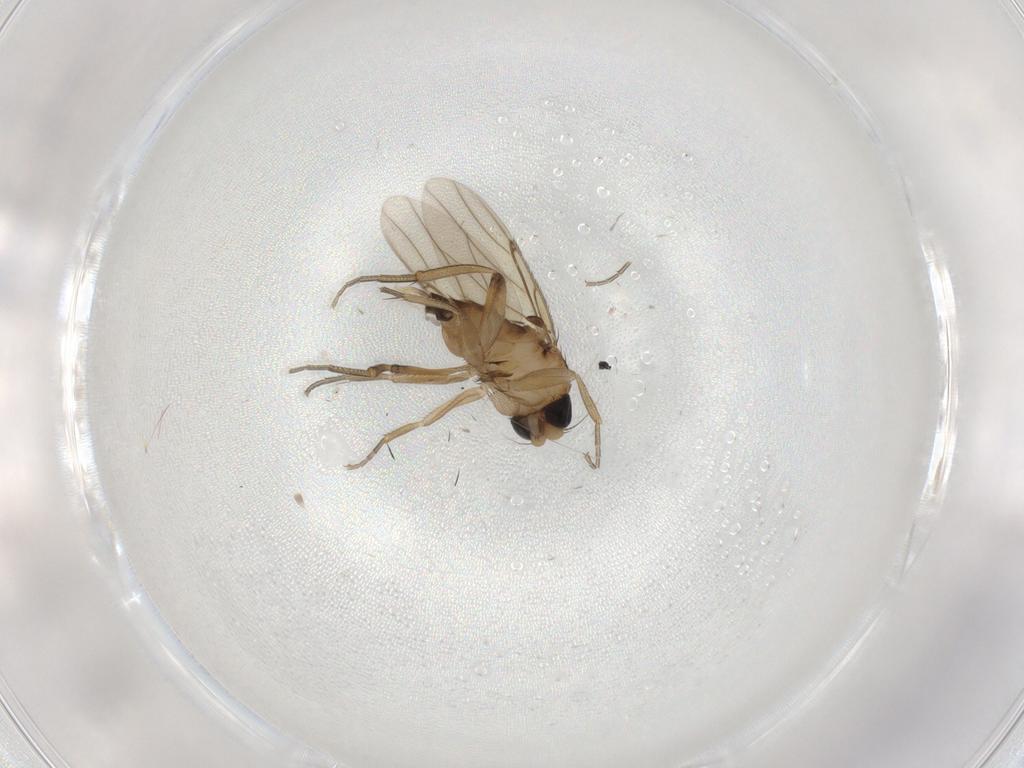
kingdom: Animalia
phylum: Arthropoda
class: Insecta
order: Diptera
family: Phoridae
